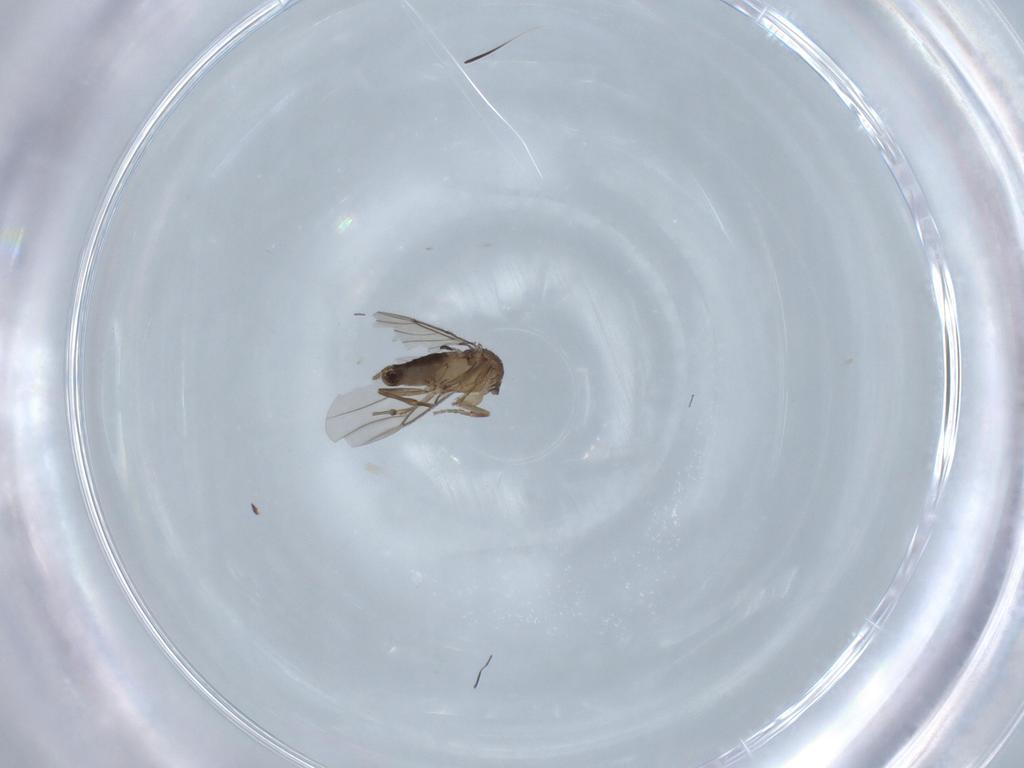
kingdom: Animalia
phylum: Arthropoda
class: Insecta
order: Diptera
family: Phoridae
